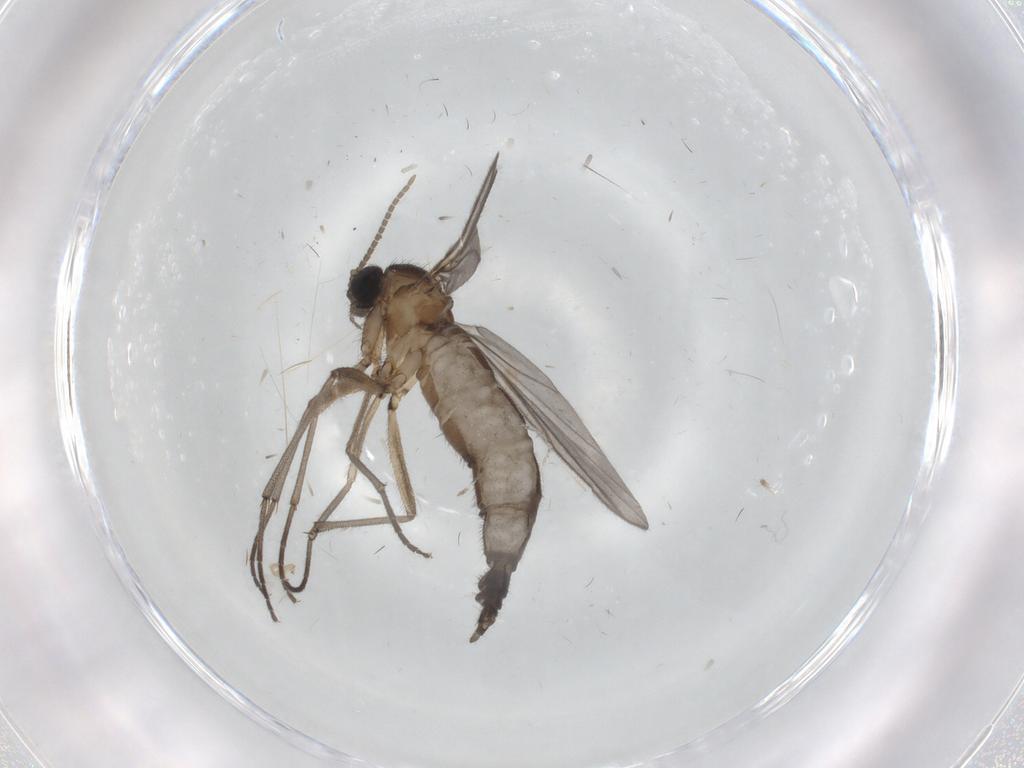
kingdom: Animalia
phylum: Arthropoda
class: Insecta
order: Diptera
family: Sciaridae
